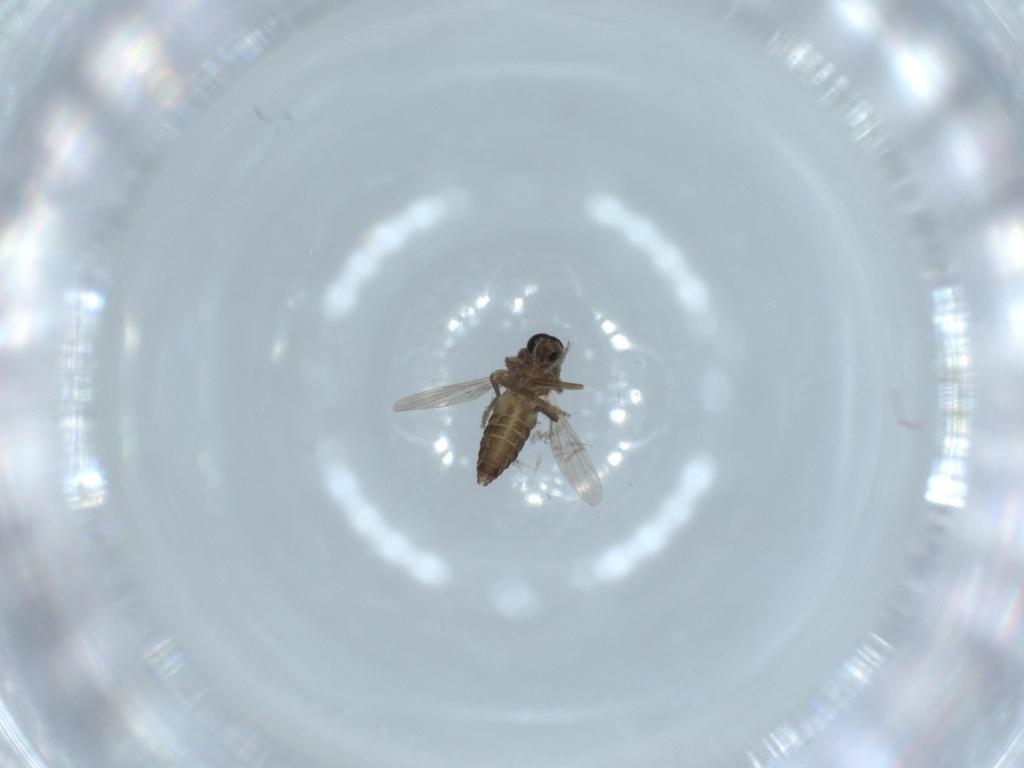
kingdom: Animalia
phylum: Arthropoda
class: Insecta
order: Diptera
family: Ceratopogonidae
